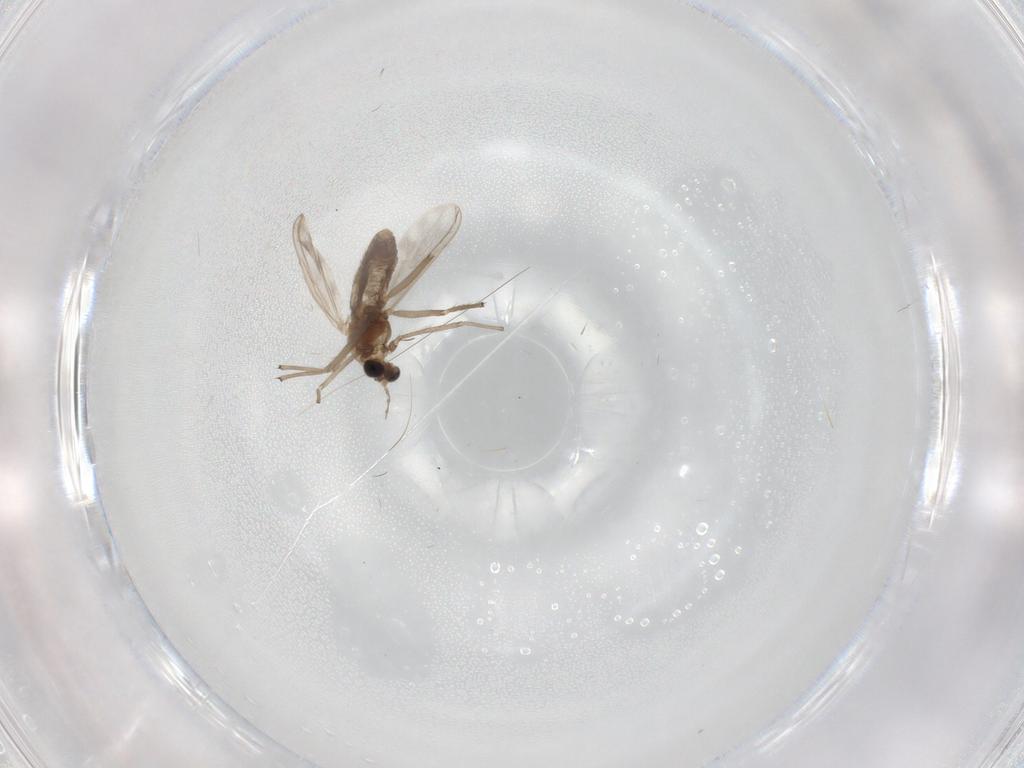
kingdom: Animalia
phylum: Arthropoda
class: Insecta
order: Diptera
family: Chironomidae
